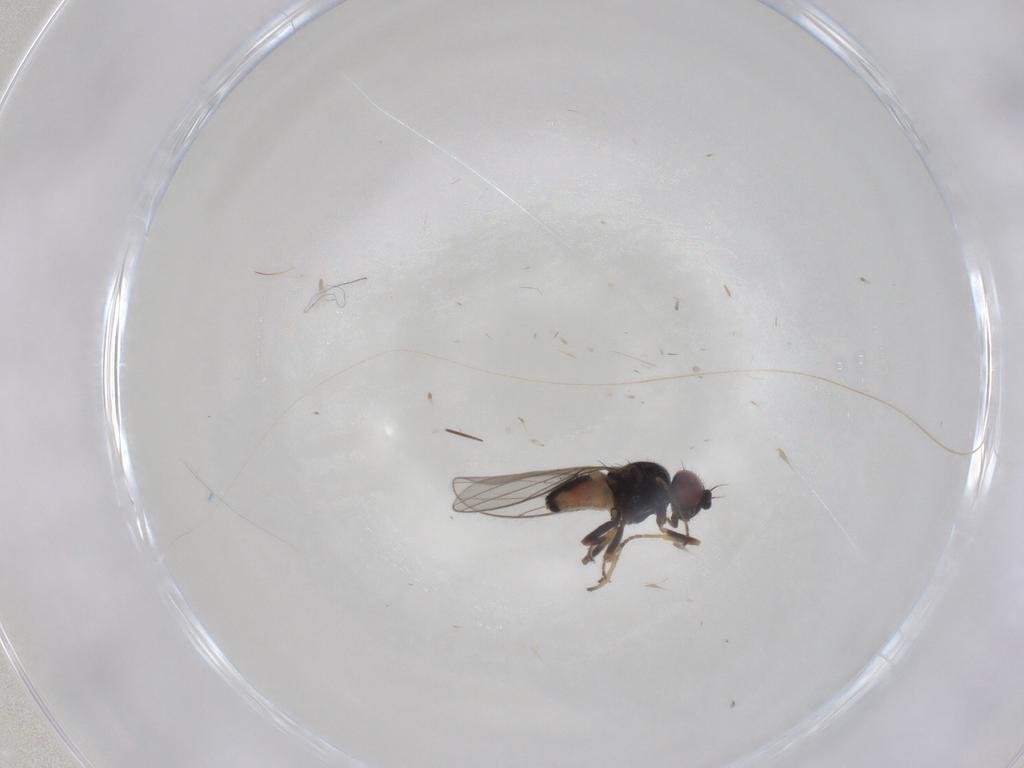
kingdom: Animalia
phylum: Arthropoda
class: Insecta
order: Diptera
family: Chloropidae
